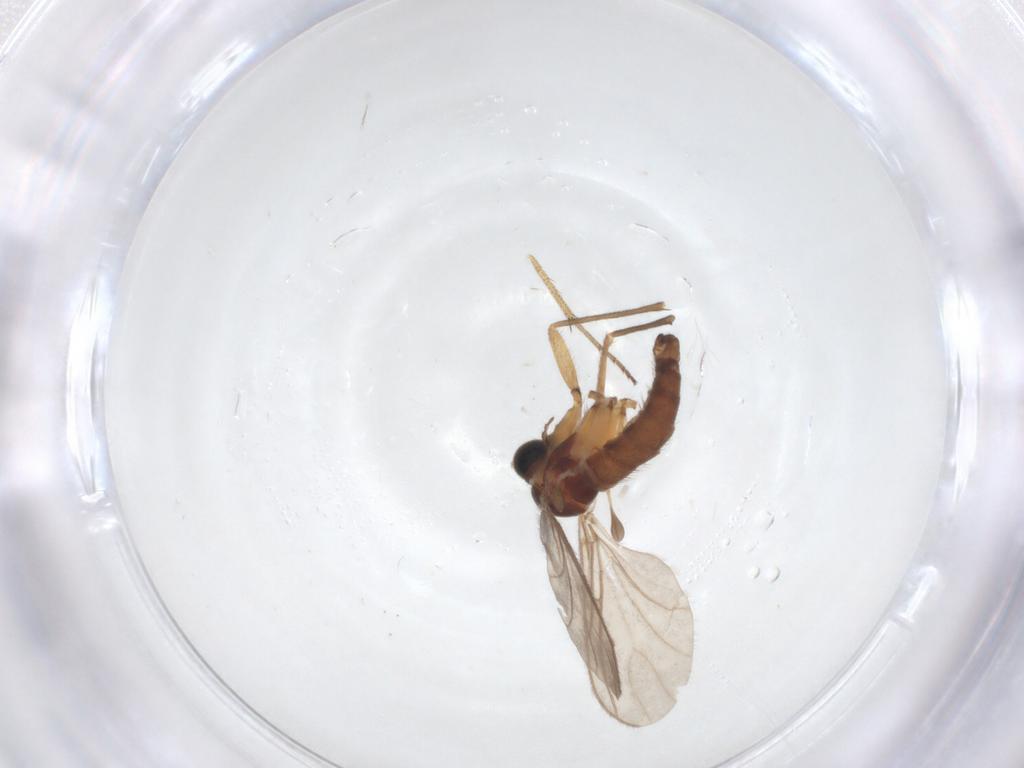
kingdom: Animalia
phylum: Arthropoda
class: Insecta
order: Diptera
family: Sciaridae
